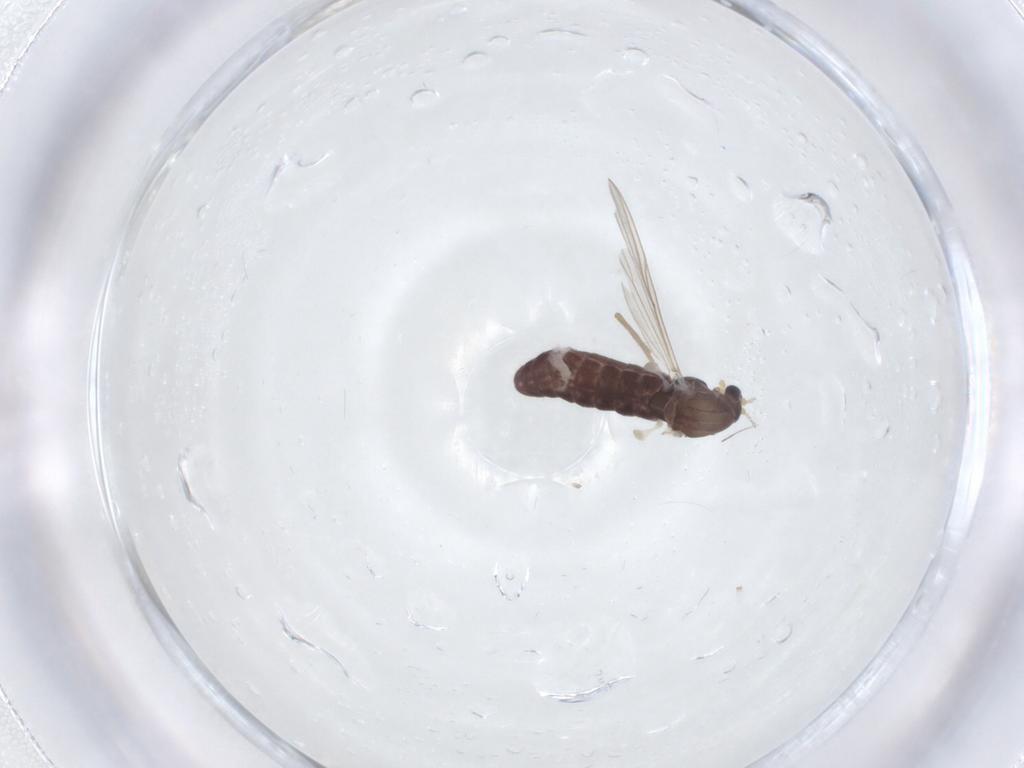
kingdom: Animalia
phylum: Arthropoda
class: Insecta
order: Diptera
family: Chironomidae
